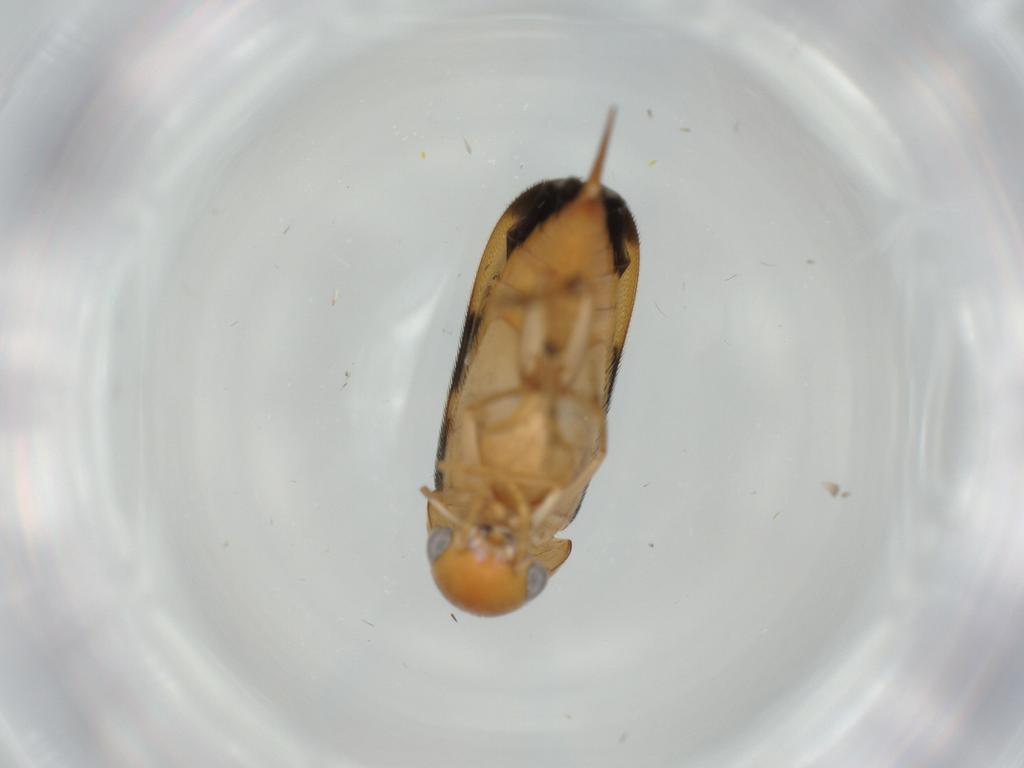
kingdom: Animalia
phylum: Arthropoda
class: Insecta
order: Coleoptera
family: Mordellidae
